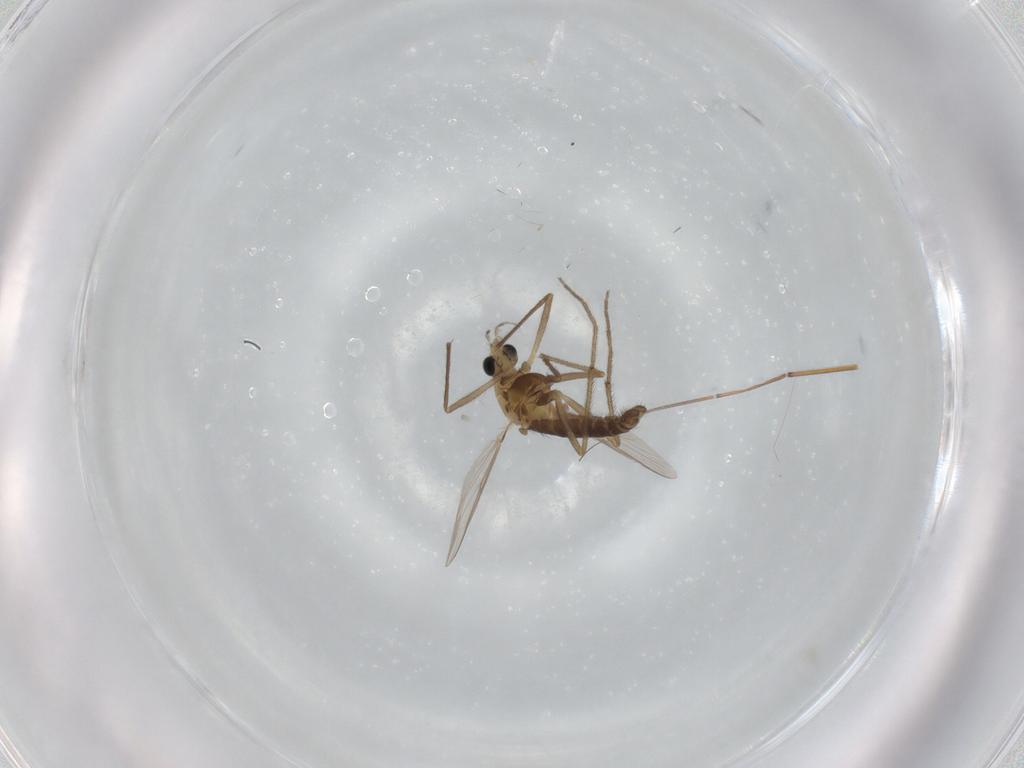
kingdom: Animalia
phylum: Arthropoda
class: Insecta
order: Diptera
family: Chironomidae
